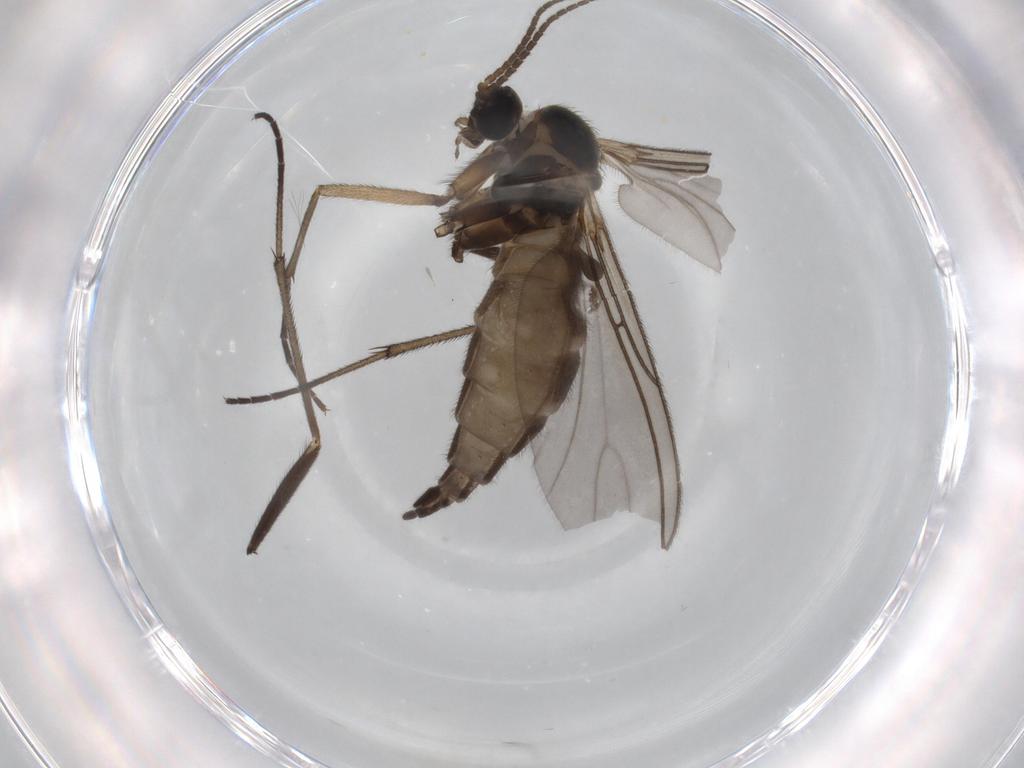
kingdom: Animalia
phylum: Arthropoda
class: Insecta
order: Diptera
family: Sciaridae
